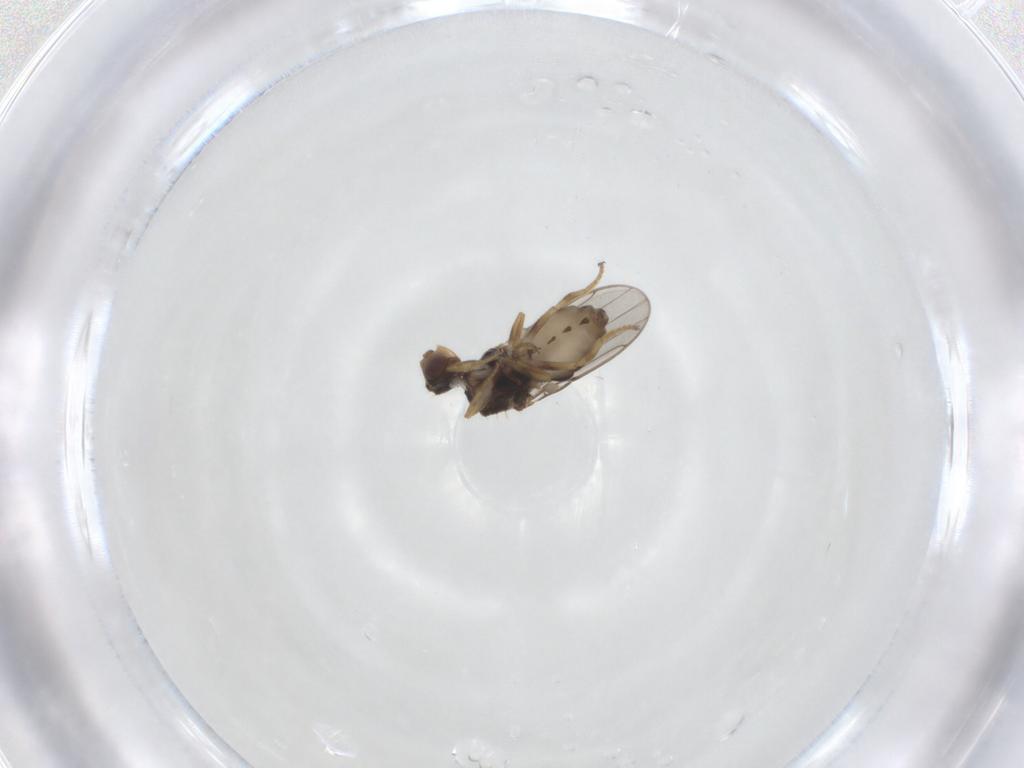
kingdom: Animalia
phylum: Arthropoda
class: Insecta
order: Diptera
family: Chloropidae
